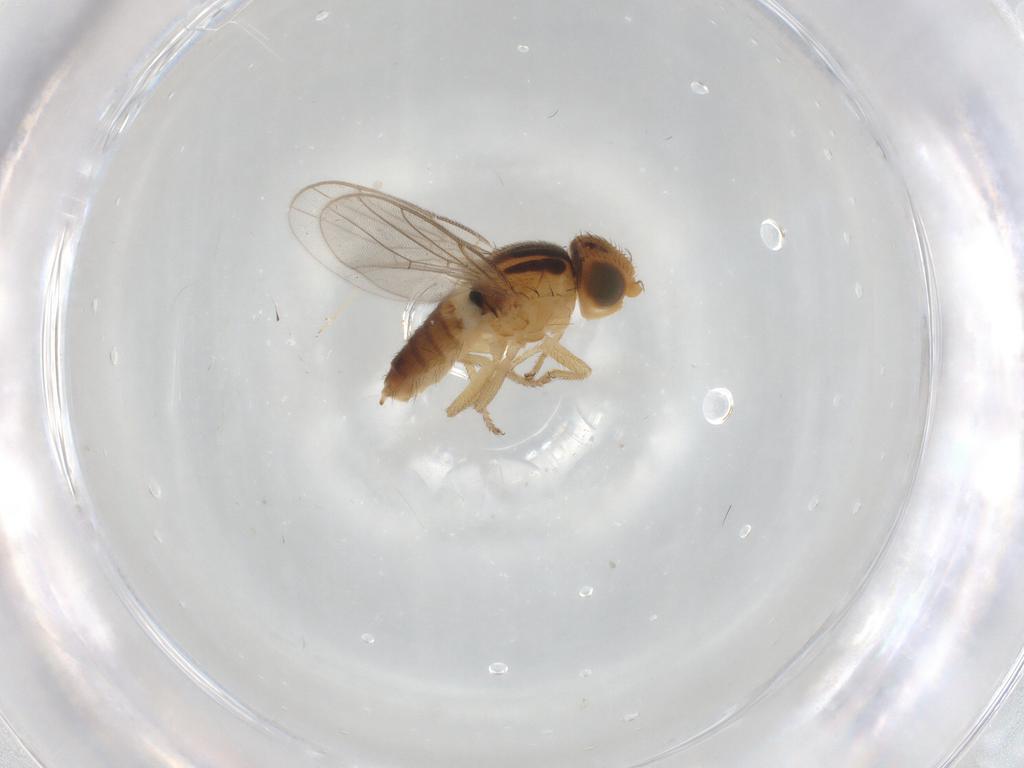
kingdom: Animalia
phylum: Arthropoda
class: Insecta
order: Diptera
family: Chloropidae
